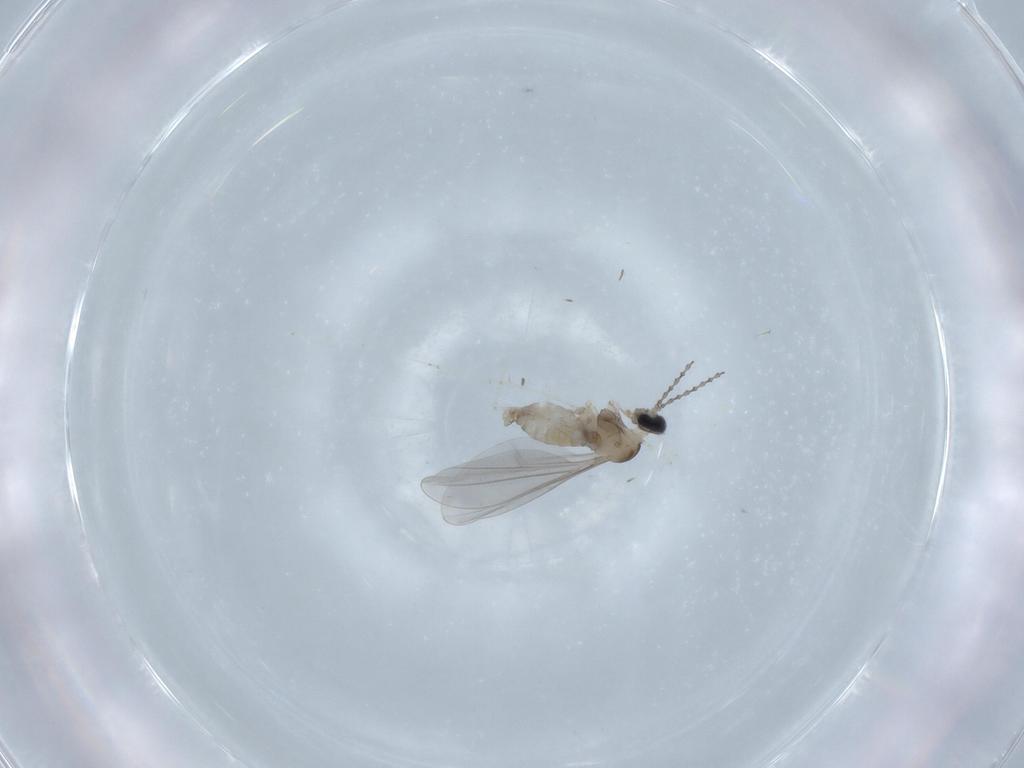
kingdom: Animalia
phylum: Arthropoda
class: Insecta
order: Diptera
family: Cecidomyiidae
